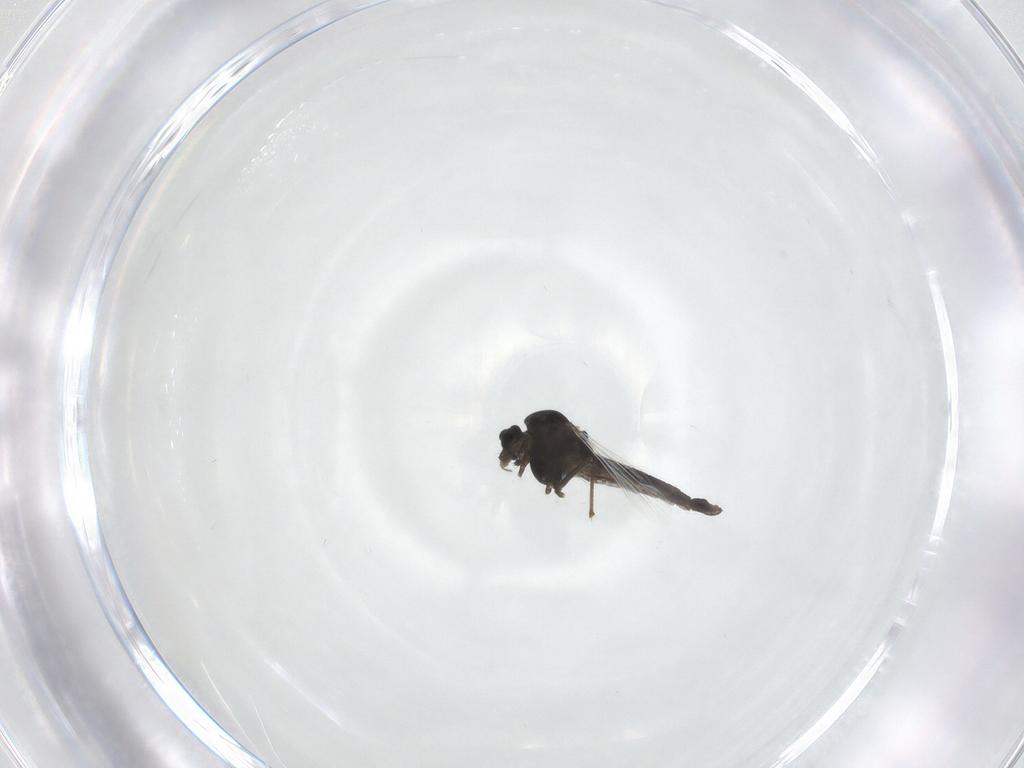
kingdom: Animalia
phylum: Arthropoda
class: Insecta
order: Diptera
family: Chironomidae
